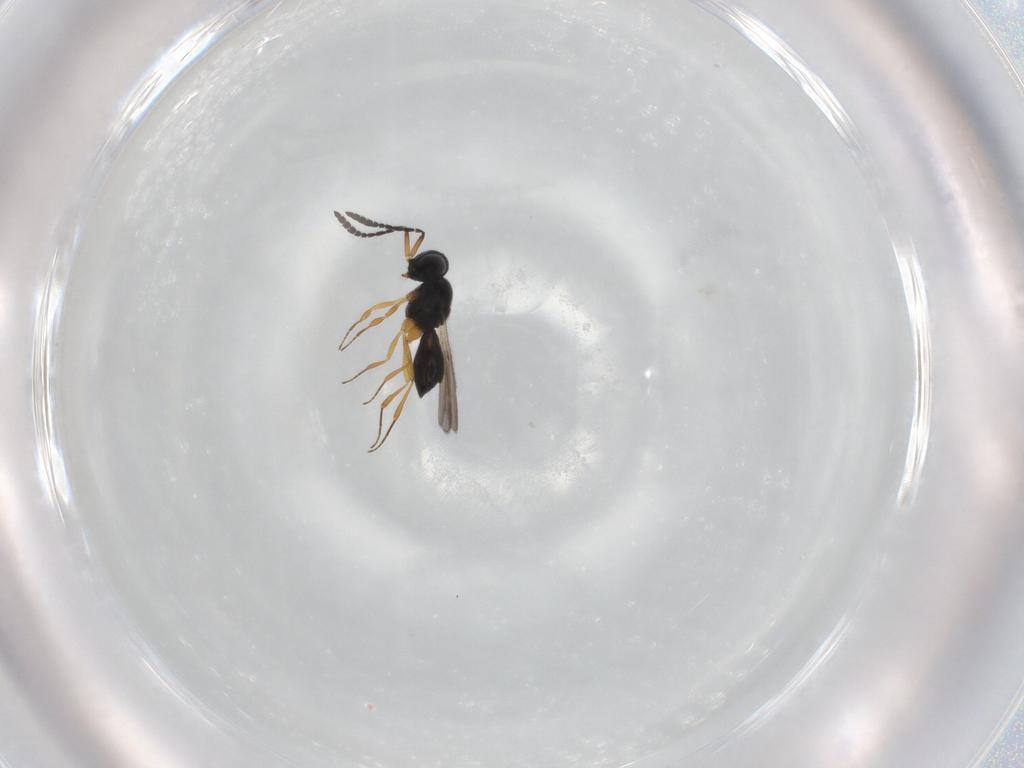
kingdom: Animalia
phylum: Arthropoda
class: Insecta
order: Hymenoptera
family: Scelionidae
